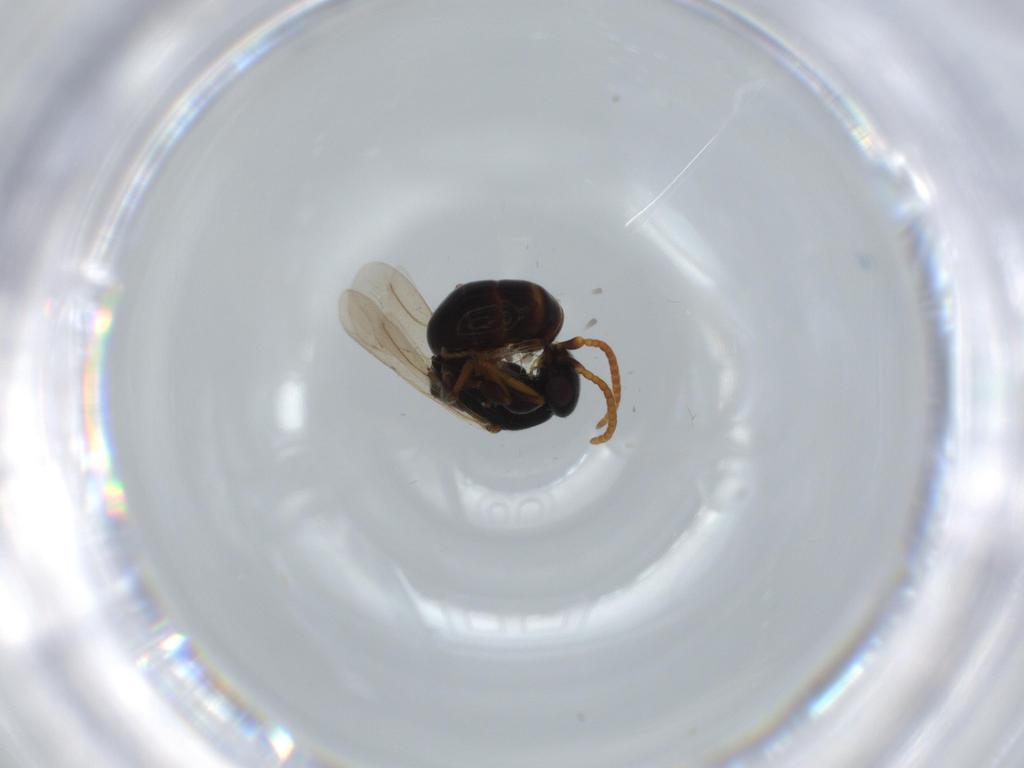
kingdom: Animalia
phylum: Arthropoda
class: Insecta
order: Hymenoptera
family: Bethylidae
